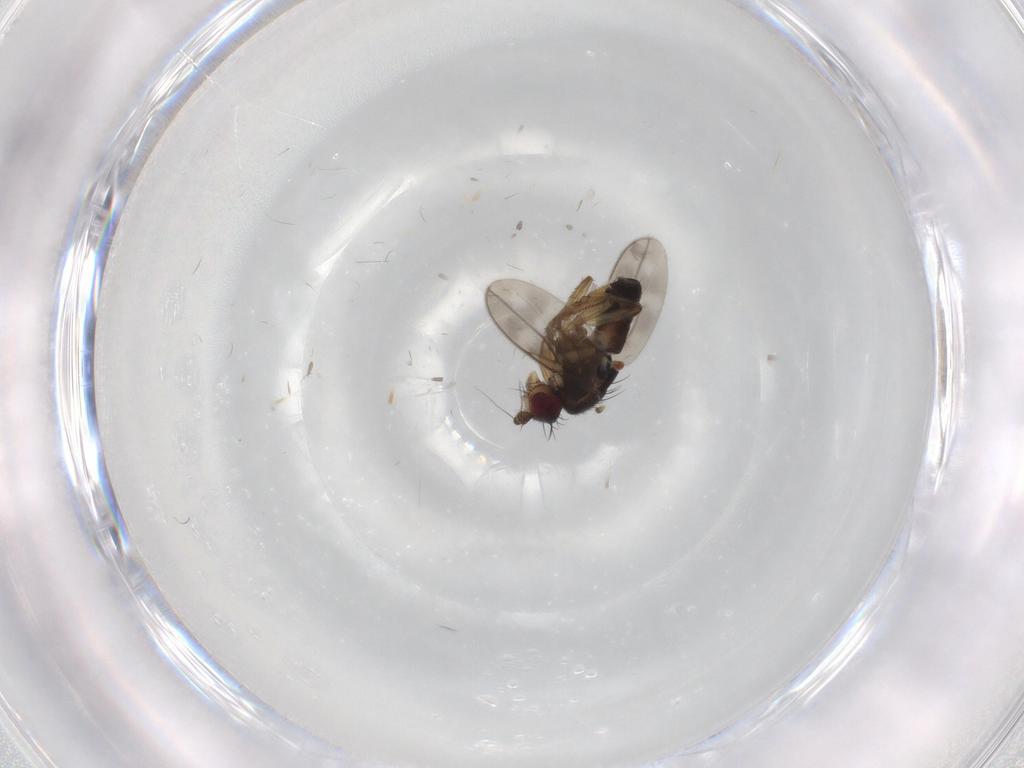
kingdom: Animalia
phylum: Arthropoda
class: Insecta
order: Diptera
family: Sphaeroceridae
